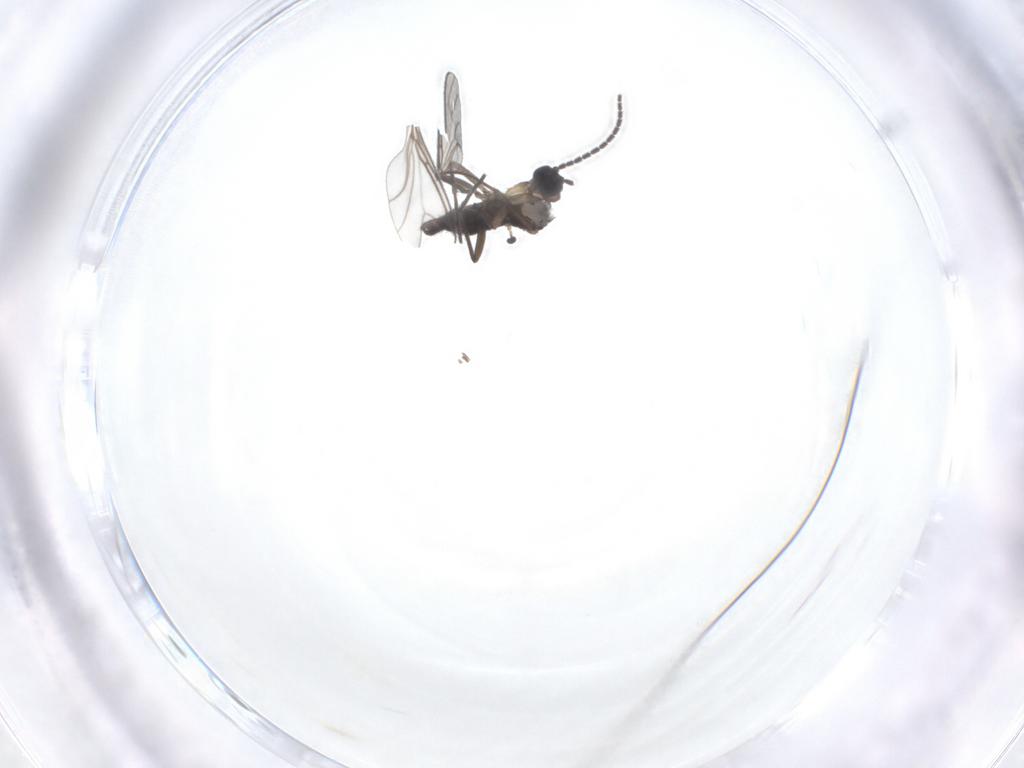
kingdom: Animalia
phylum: Arthropoda
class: Insecta
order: Diptera
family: Sciaridae
